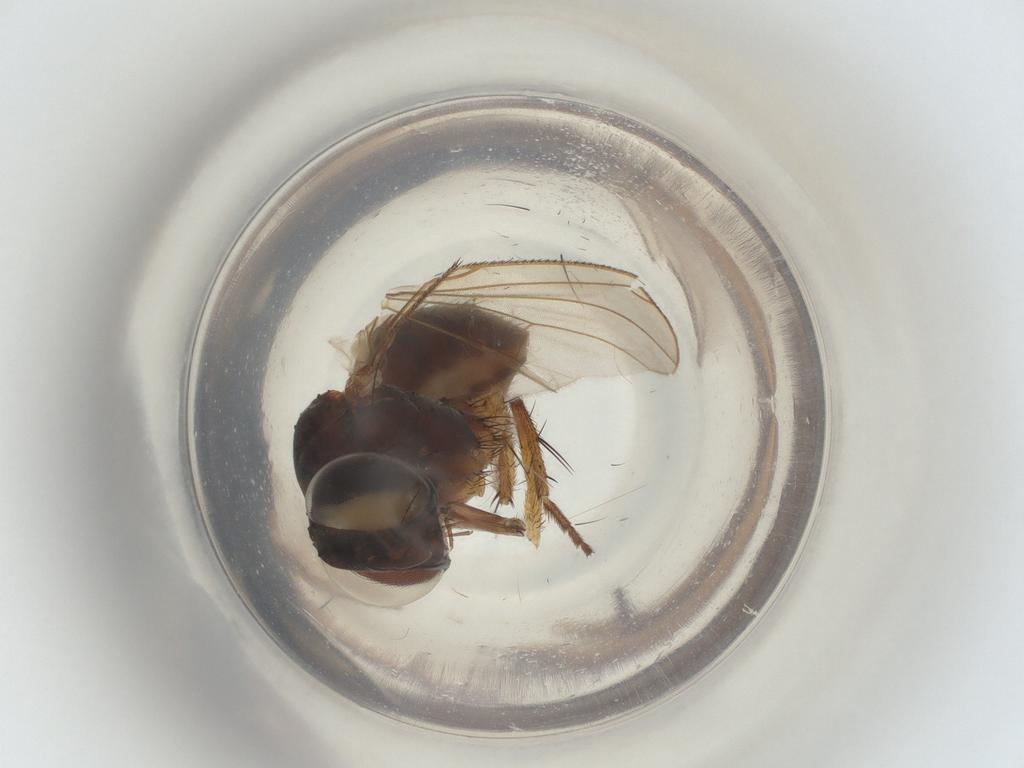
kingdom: Animalia
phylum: Arthropoda
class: Insecta
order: Diptera
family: Muscidae
